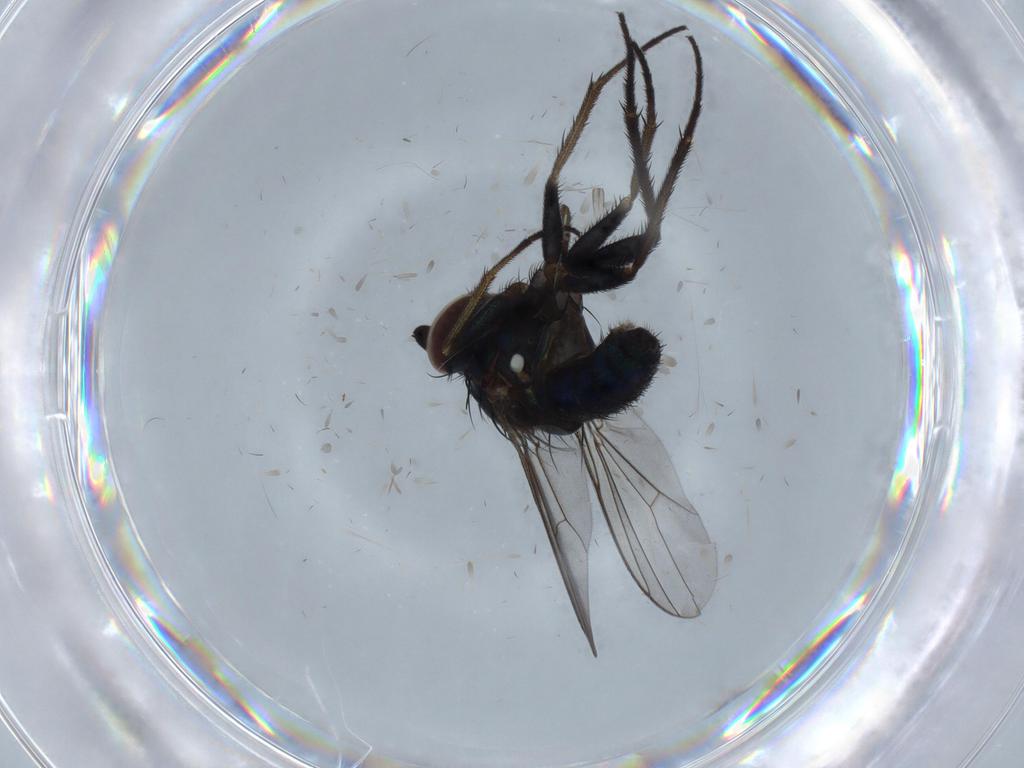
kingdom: Animalia
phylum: Arthropoda
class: Insecta
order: Diptera
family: Dolichopodidae
